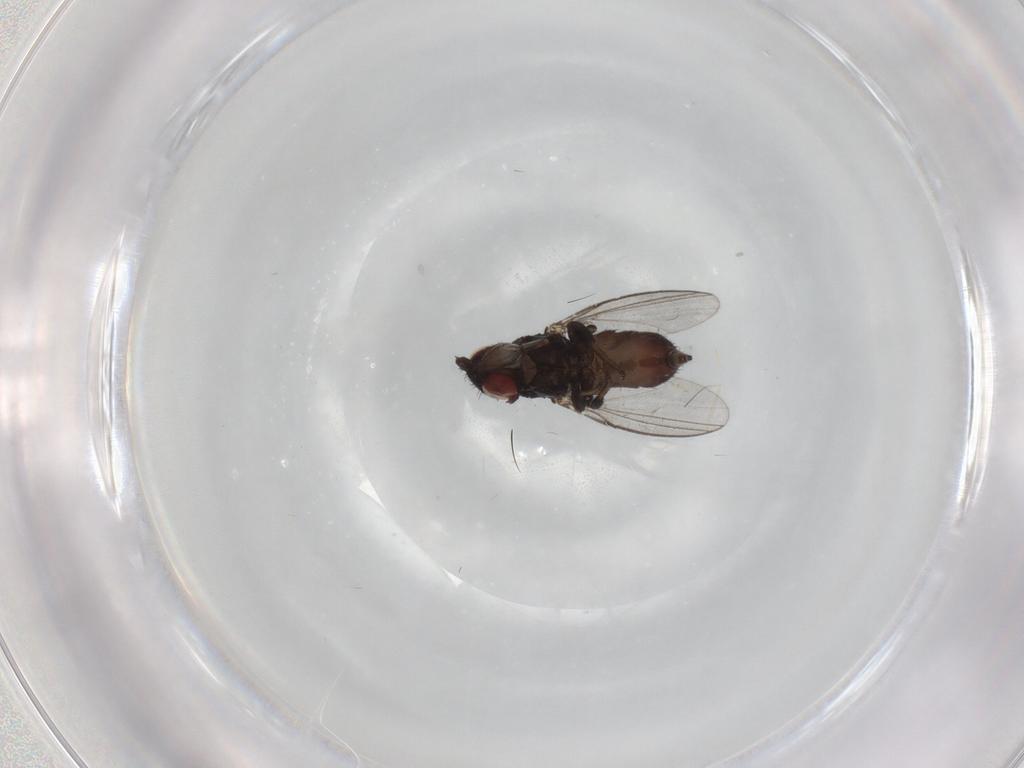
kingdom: Animalia
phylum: Arthropoda
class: Insecta
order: Diptera
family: Milichiidae
